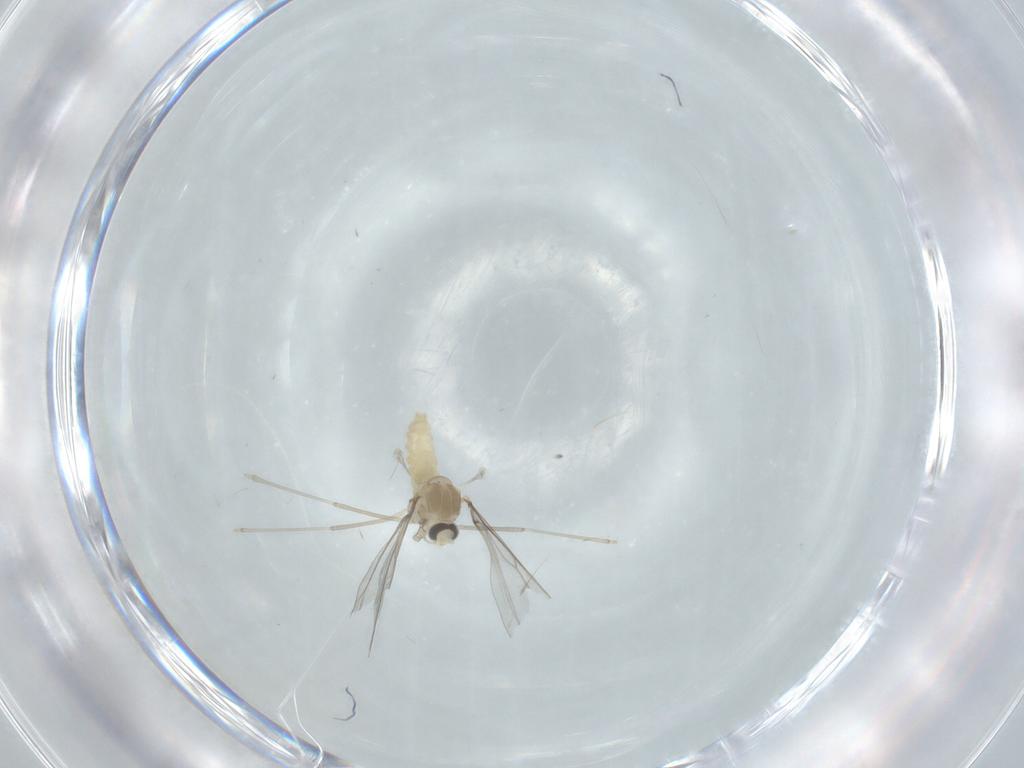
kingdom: Animalia
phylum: Arthropoda
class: Insecta
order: Diptera
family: Cecidomyiidae
